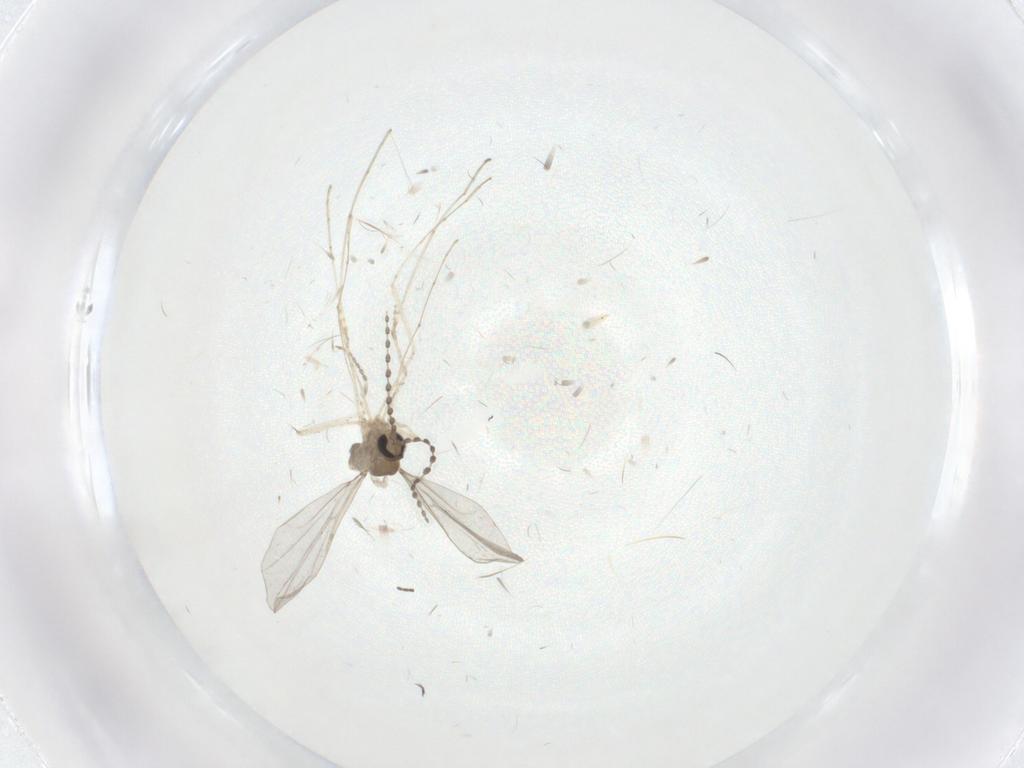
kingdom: Animalia
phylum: Arthropoda
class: Insecta
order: Diptera
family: Cecidomyiidae
